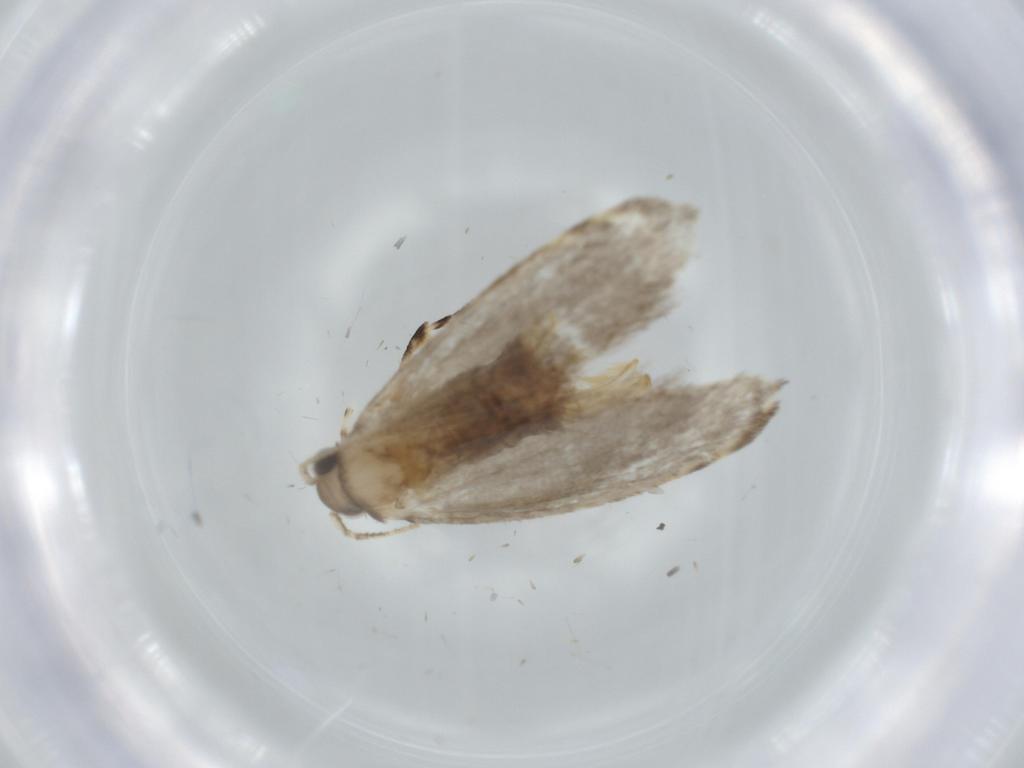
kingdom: Animalia
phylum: Arthropoda
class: Insecta
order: Lepidoptera
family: Tineidae
